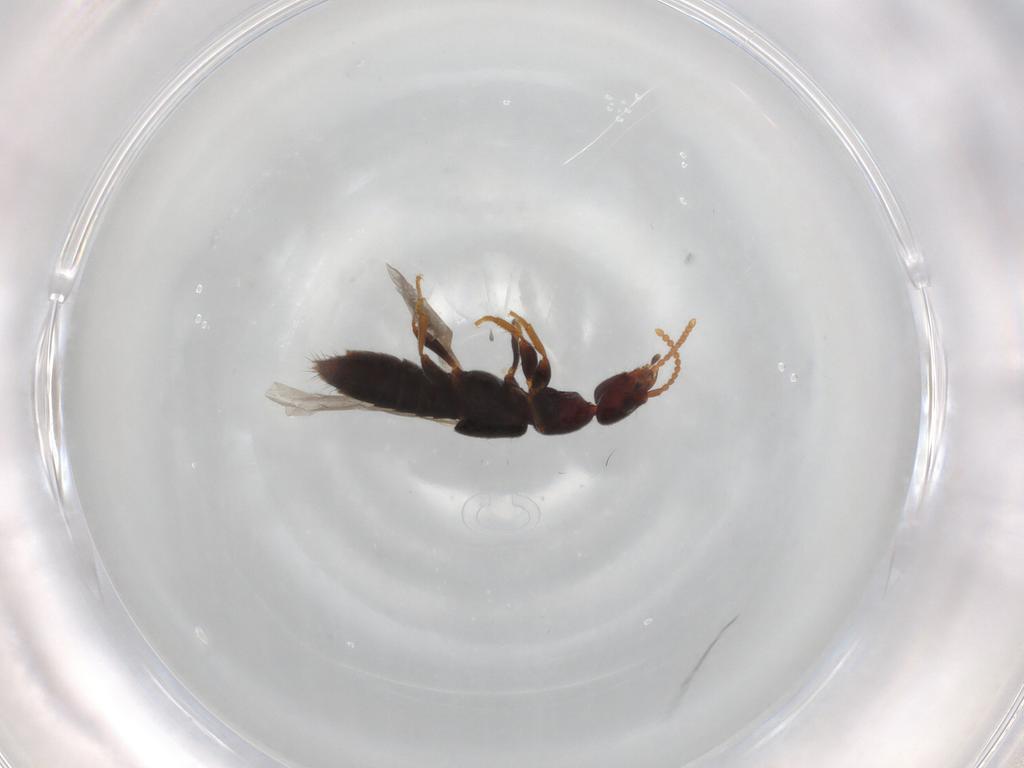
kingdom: Animalia
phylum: Arthropoda
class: Insecta
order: Coleoptera
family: Staphylinidae
